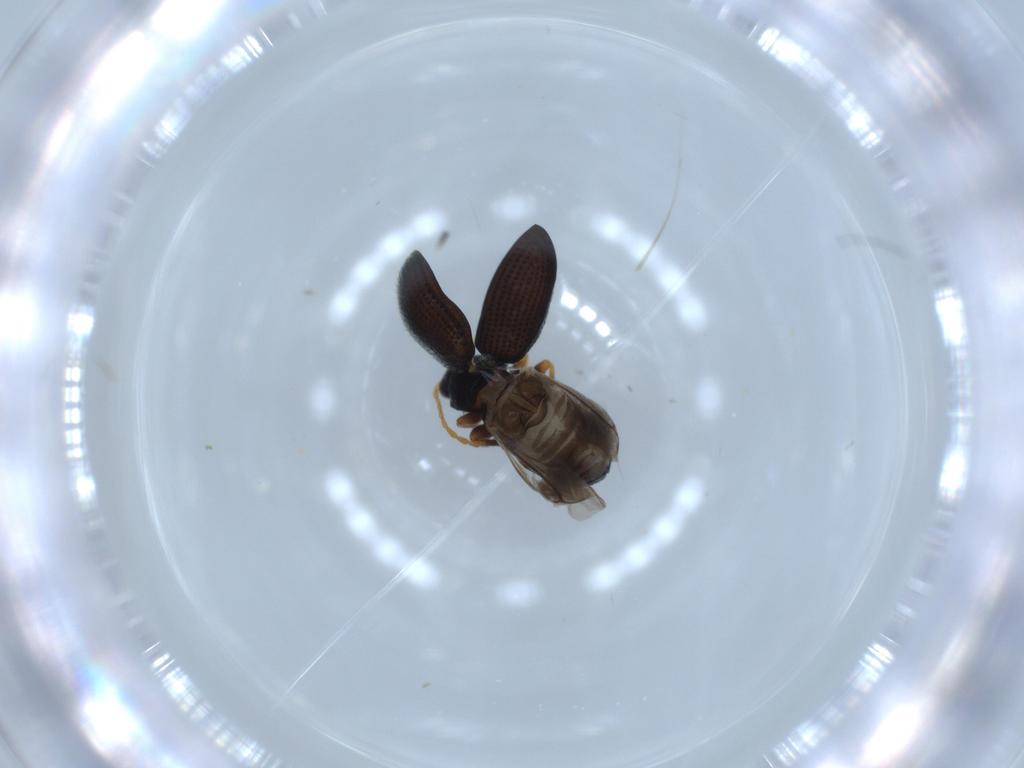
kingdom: Animalia
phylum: Arthropoda
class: Insecta
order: Coleoptera
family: Chrysomelidae
